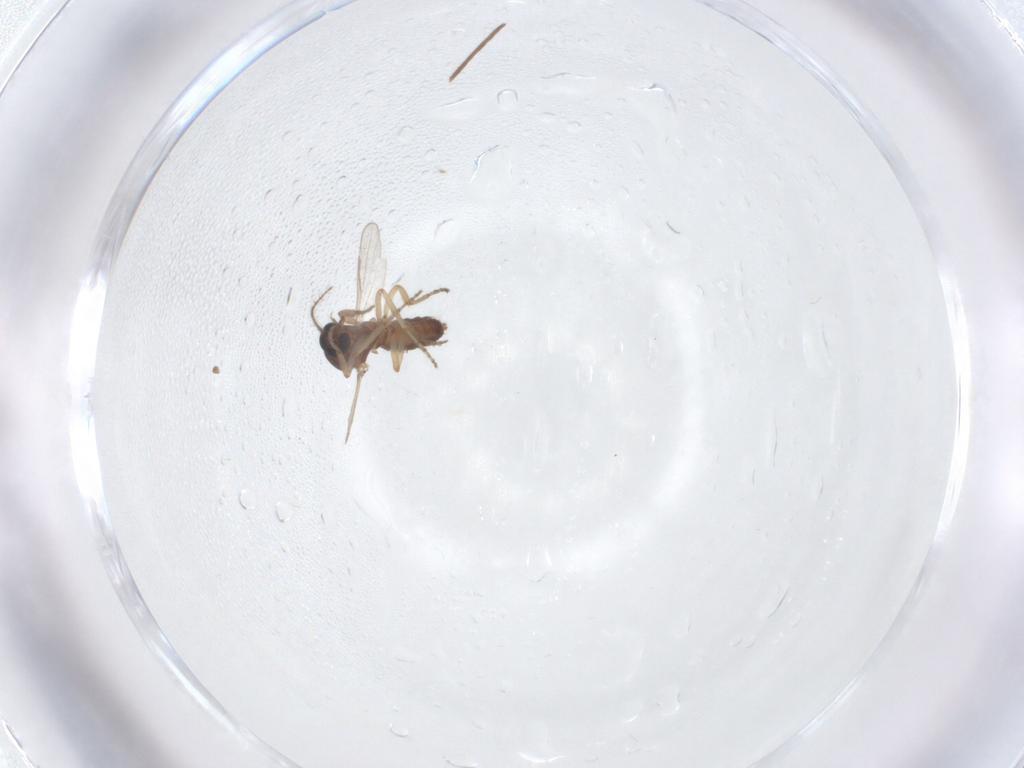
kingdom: Animalia
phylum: Arthropoda
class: Insecta
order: Diptera
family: Ceratopogonidae
